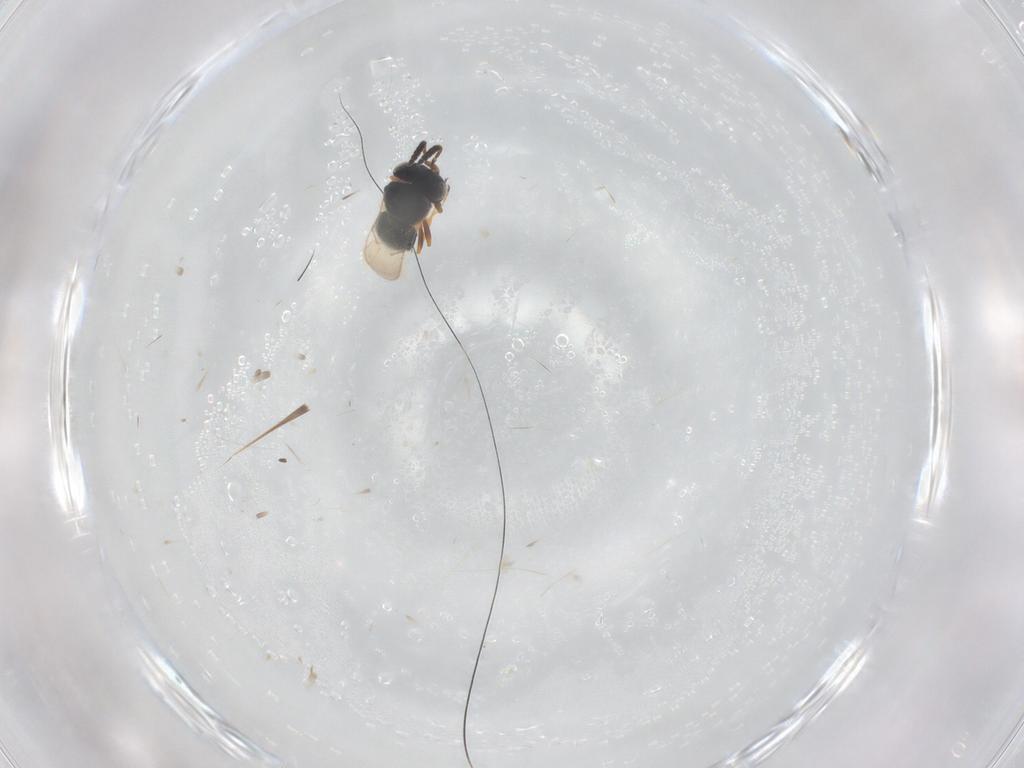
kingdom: Animalia
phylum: Arthropoda
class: Insecta
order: Hymenoptera
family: Scelionidae
